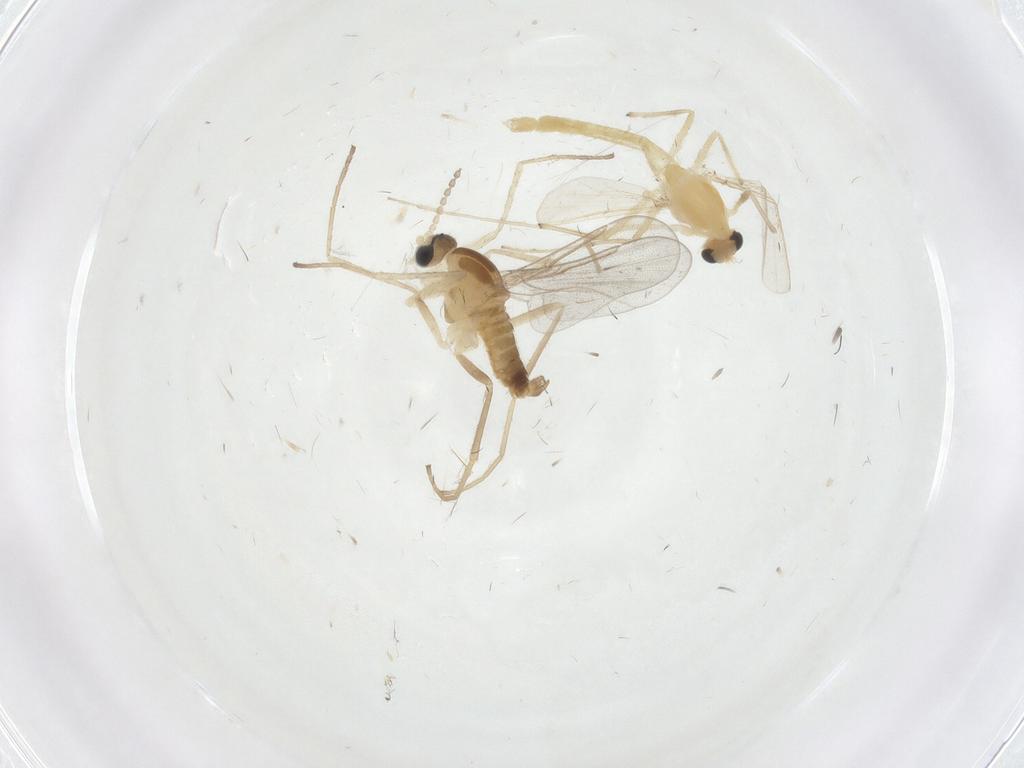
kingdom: Animalia
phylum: Arthropoda
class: Insecta
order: Diptera
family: Cecidomyiidae
